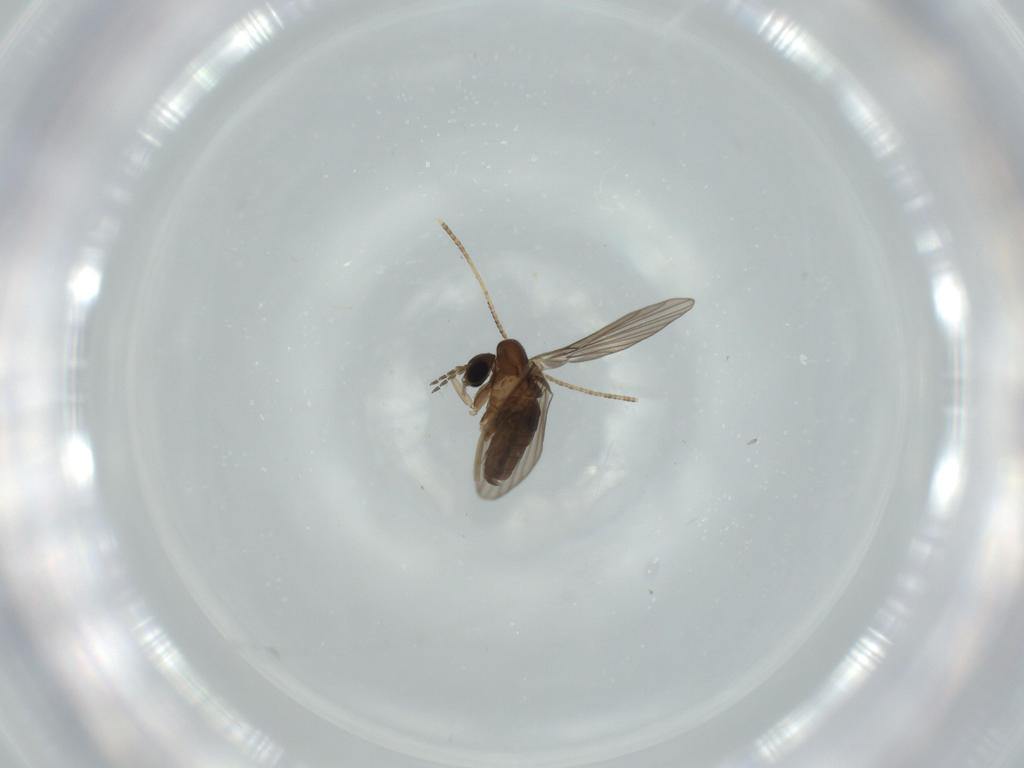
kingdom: Animalia
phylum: Arthropoda
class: Insecta
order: Diptera
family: Psychodidae
